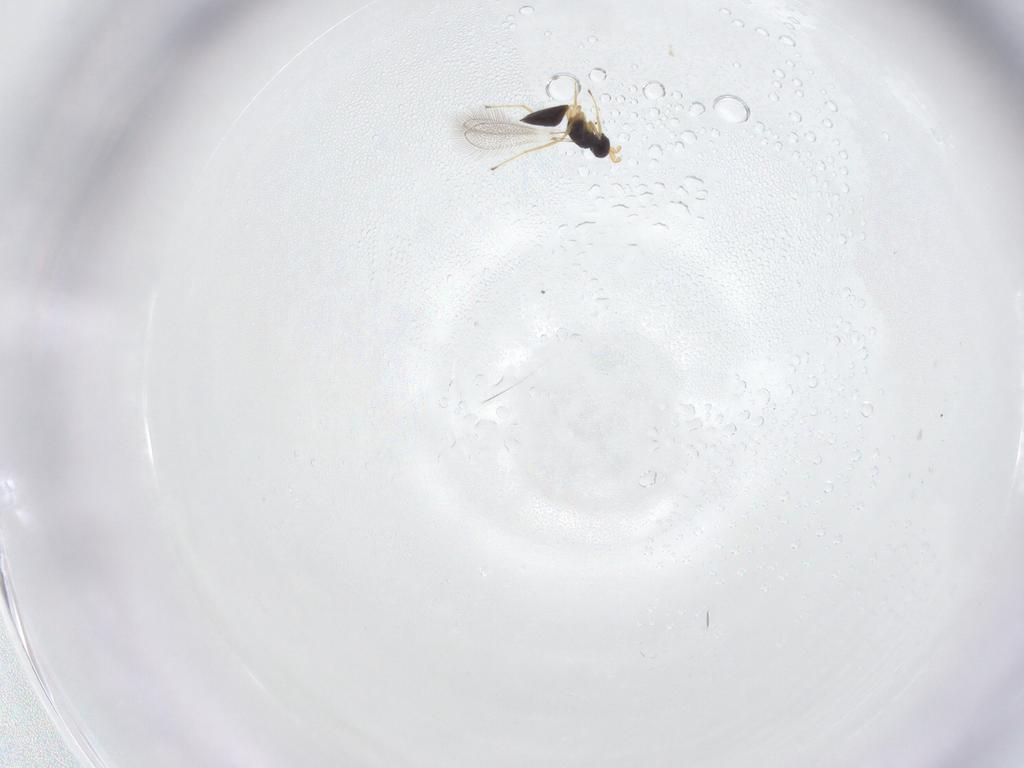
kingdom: Animalia
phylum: Arthropoda
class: Insecta
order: Hymenoptera
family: Mymaridae
